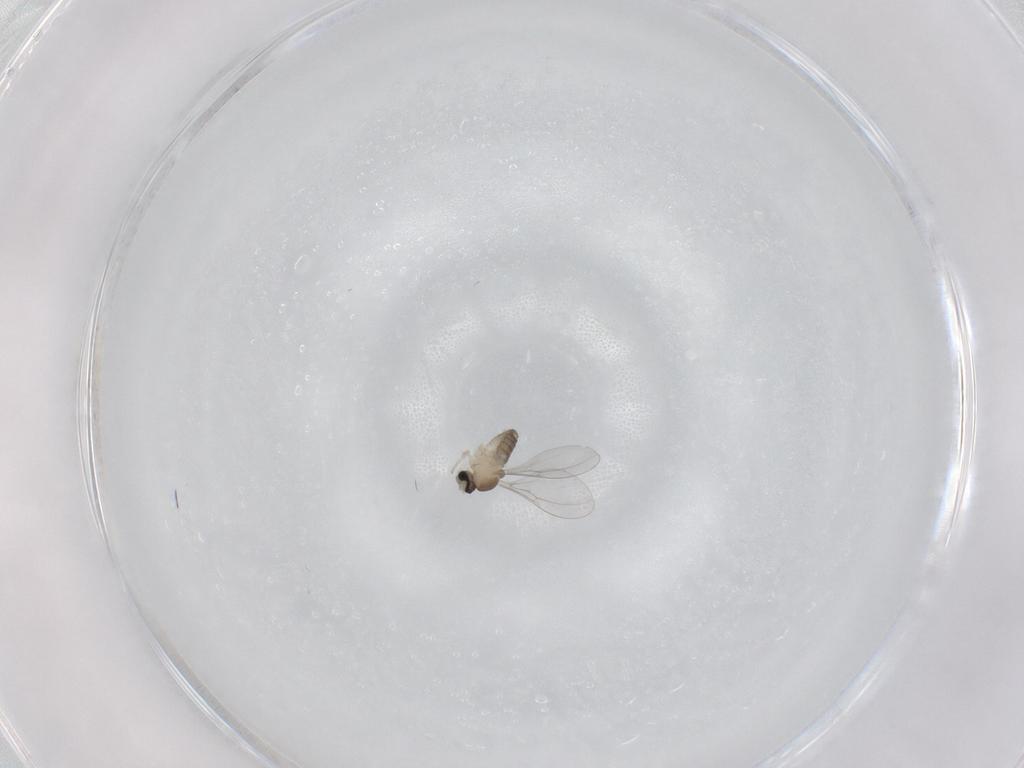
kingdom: Animalia
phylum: Arthropoda
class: Insecta
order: Diptera
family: Cecidomyiidae
